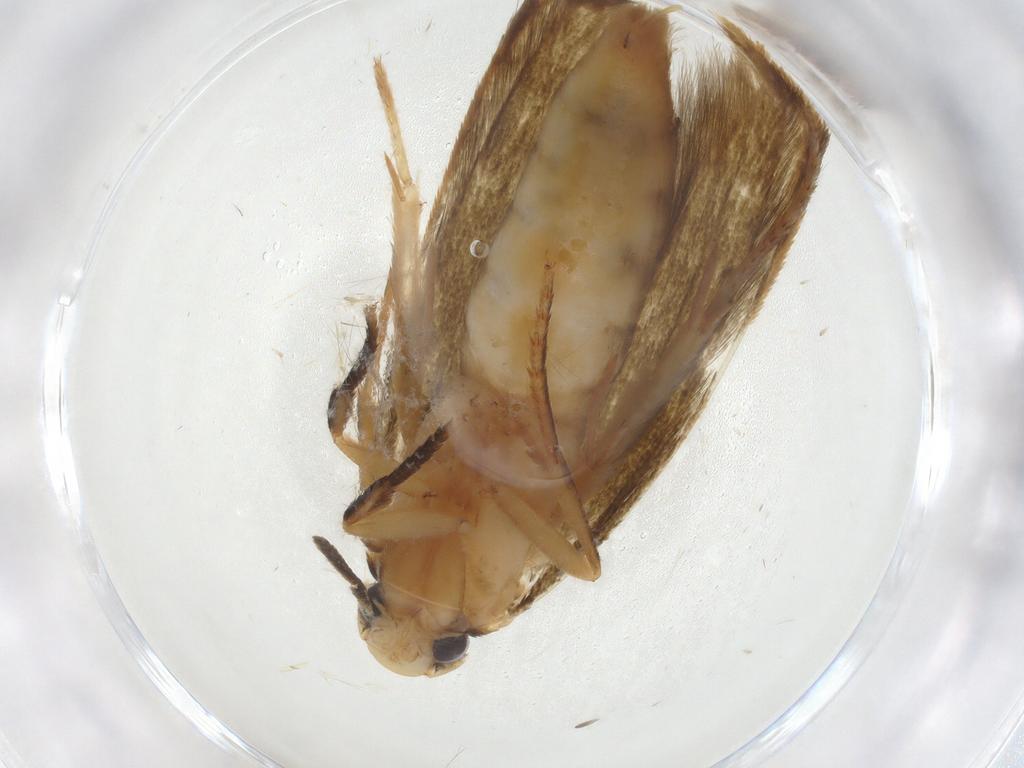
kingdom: Animalia
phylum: Arthropoda
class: Insecta
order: Lepidoptera
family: Tineidae
